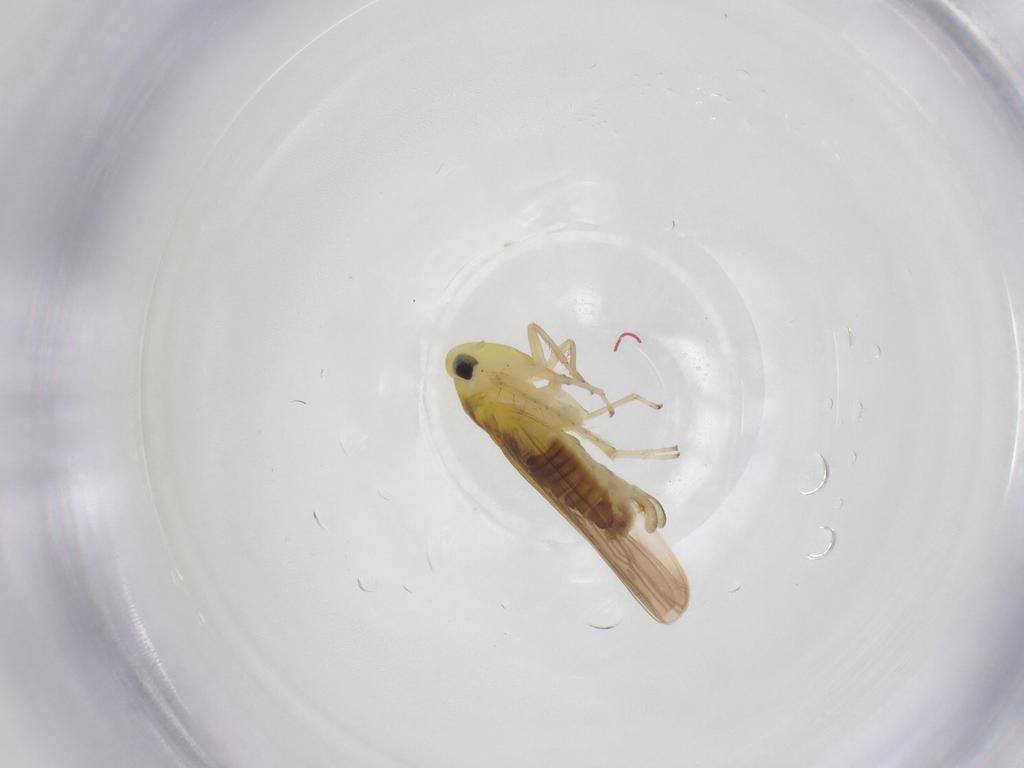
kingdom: Animalia
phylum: Arthropoda
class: Insecta
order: Hemiptera
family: Cicadellidae
